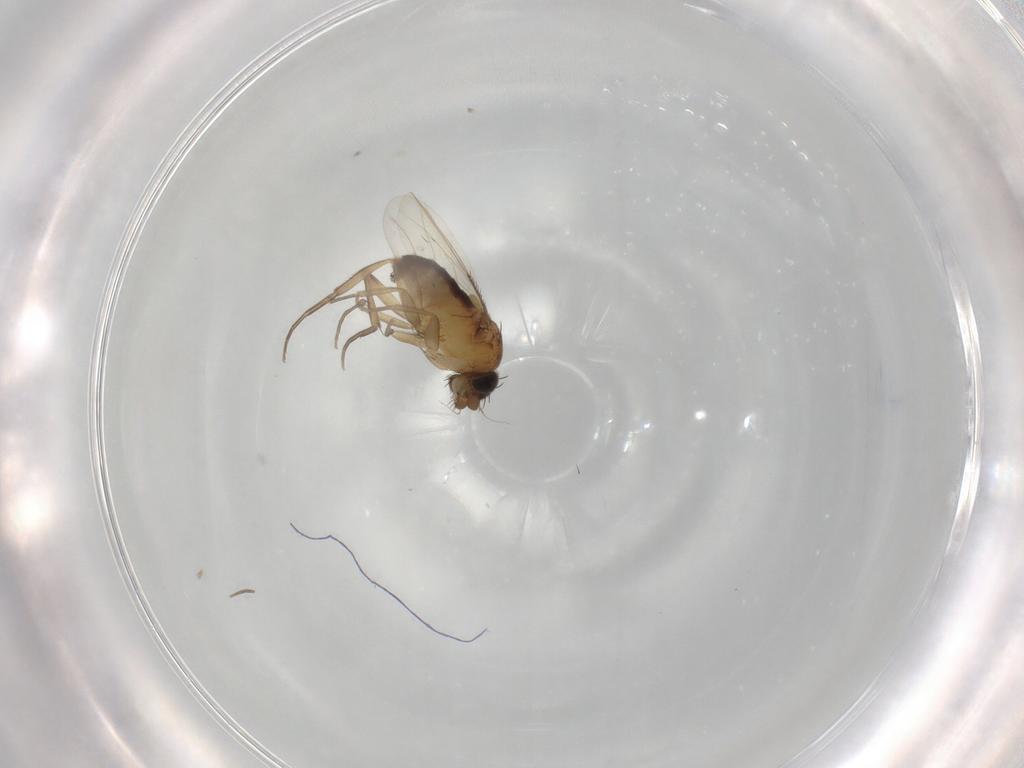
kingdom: Animalia
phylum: Arthropoda
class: Insecta
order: Diptera
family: Phoridae
